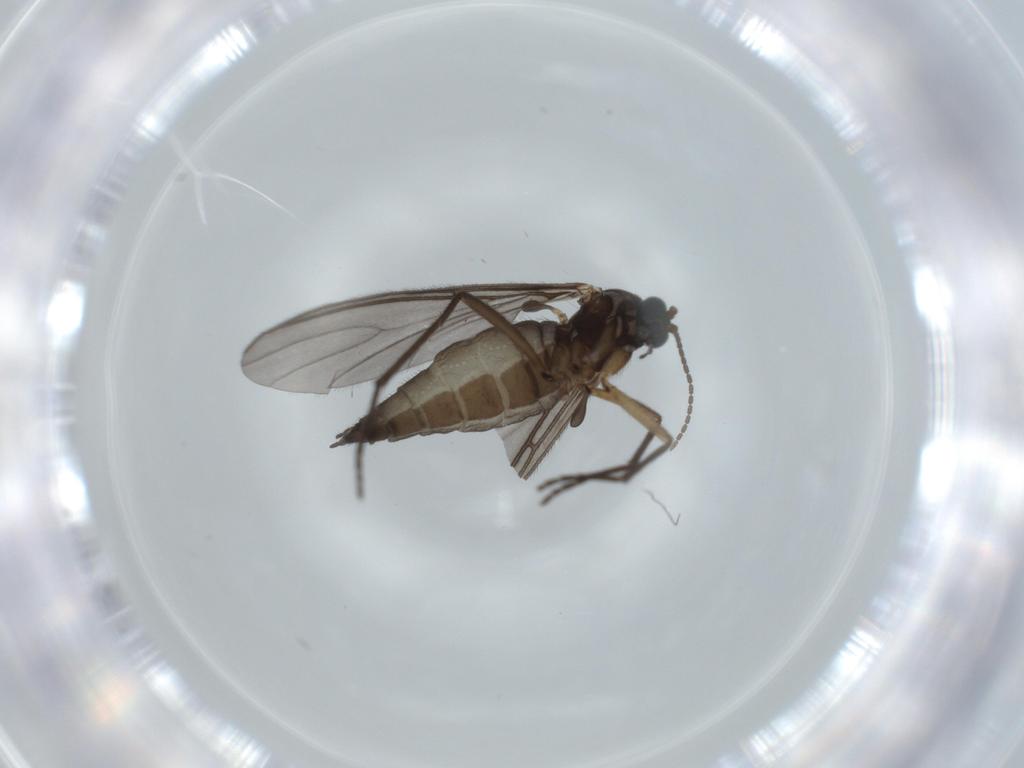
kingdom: Animalia
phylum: Arthropoda
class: Insecta
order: Diptera
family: Sciaridae
